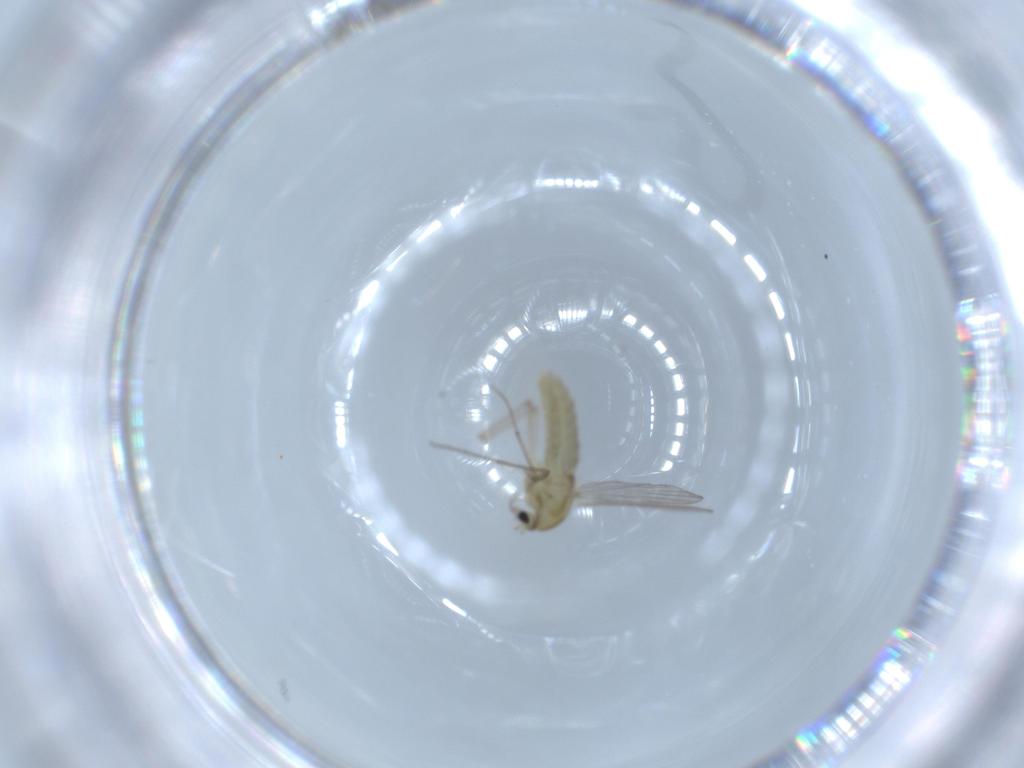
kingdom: Animalia
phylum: Arthropoda
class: Insecta
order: Diptera
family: Chironomidae
